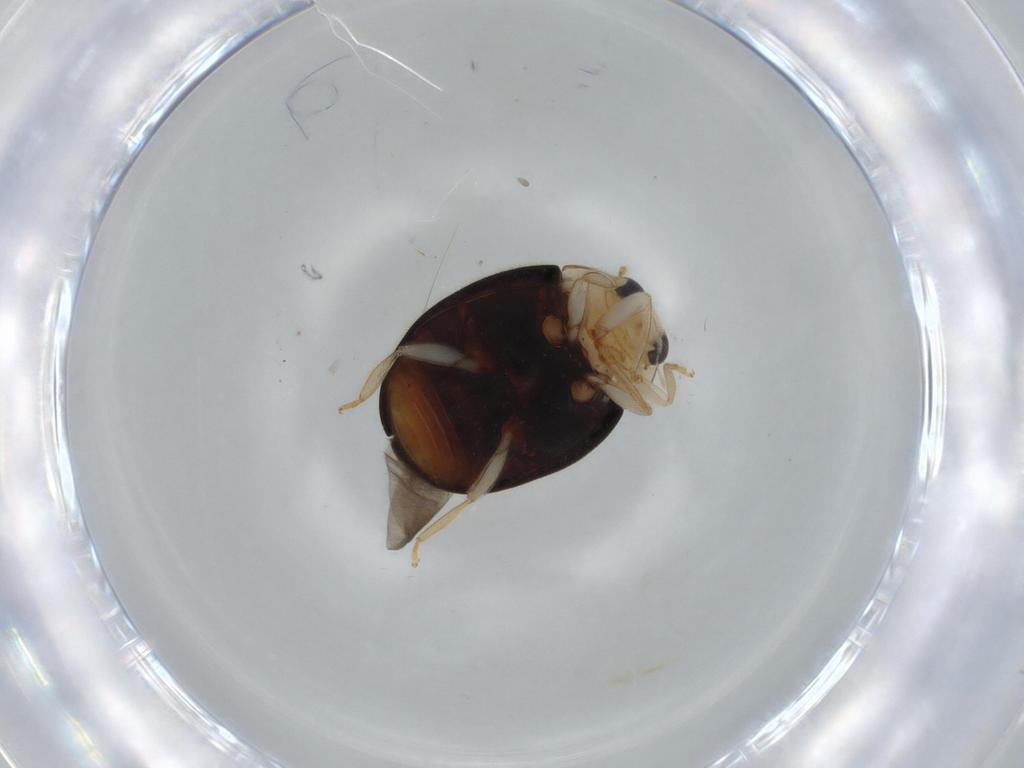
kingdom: Animalia
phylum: Arthropoda
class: Insecta
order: Coleoptera
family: Coccinellidae
